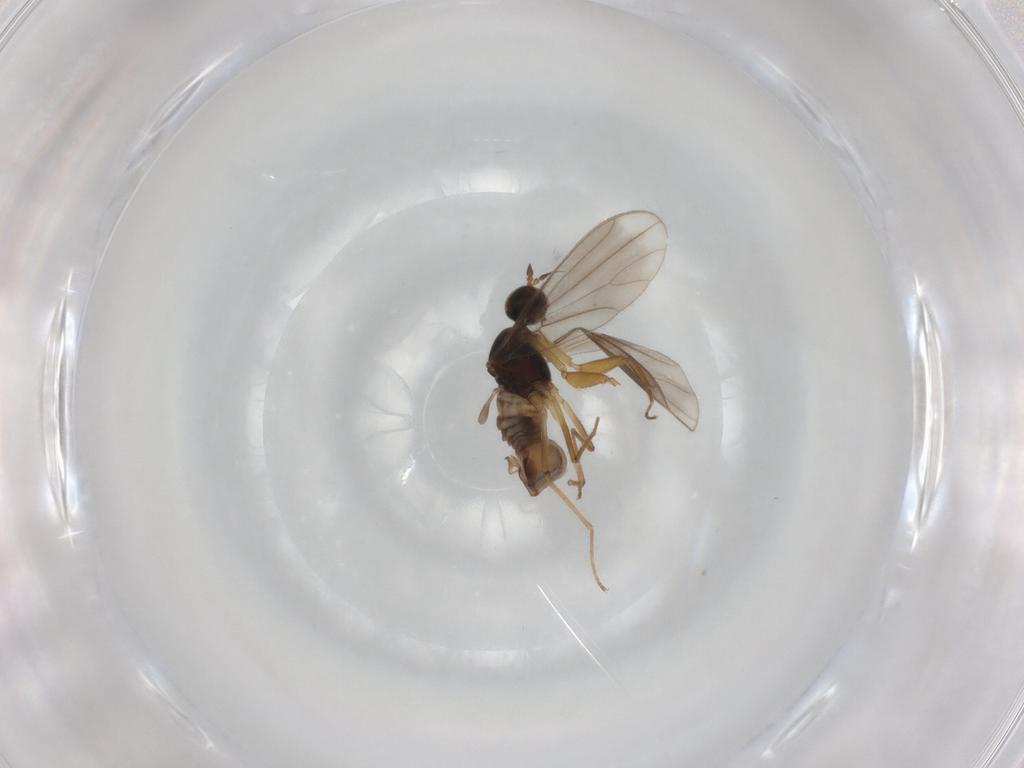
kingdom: Animalia
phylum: Arthropoda
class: Insecta
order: Diptera
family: Empididae
